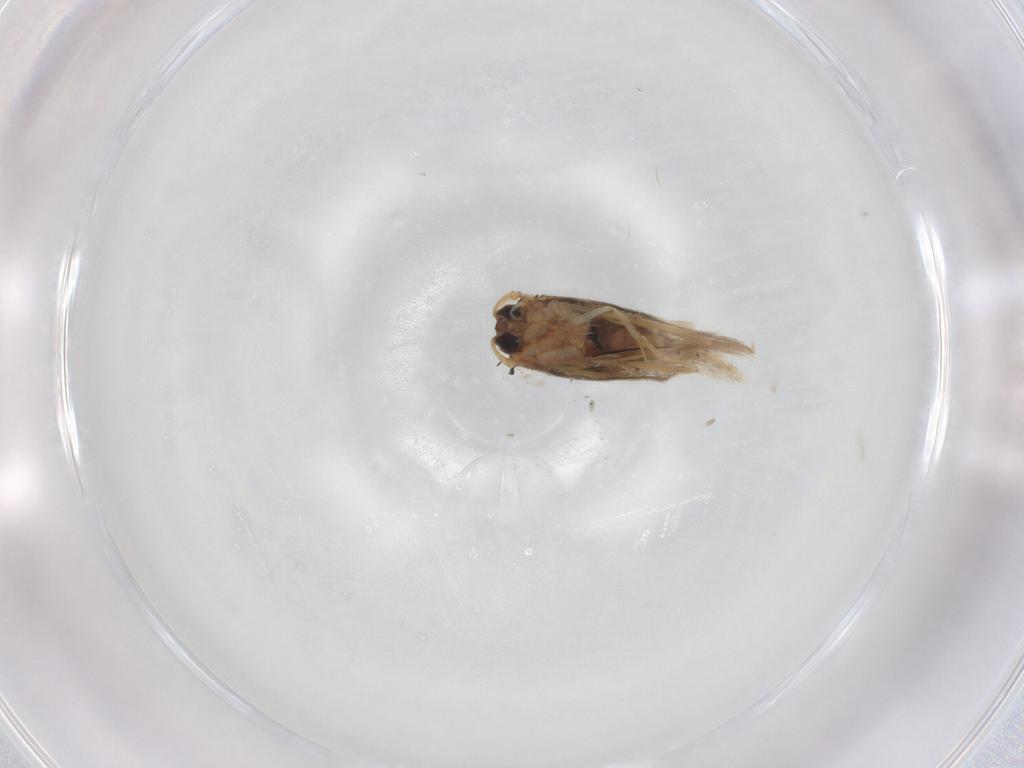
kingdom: Animalia
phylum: Arthropoda
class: Insecta
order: Lepidoptera
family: Nepticulidae
